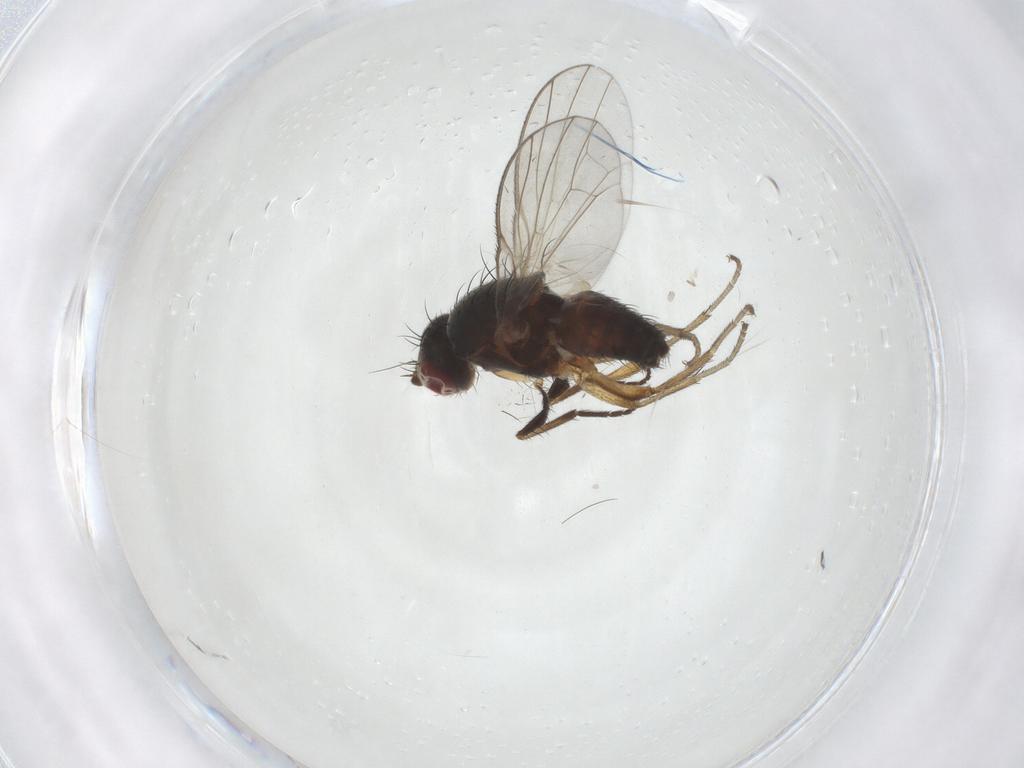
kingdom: Animalia
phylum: Arthropoda
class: Insecta
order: Diptera
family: Heleomyzidae
